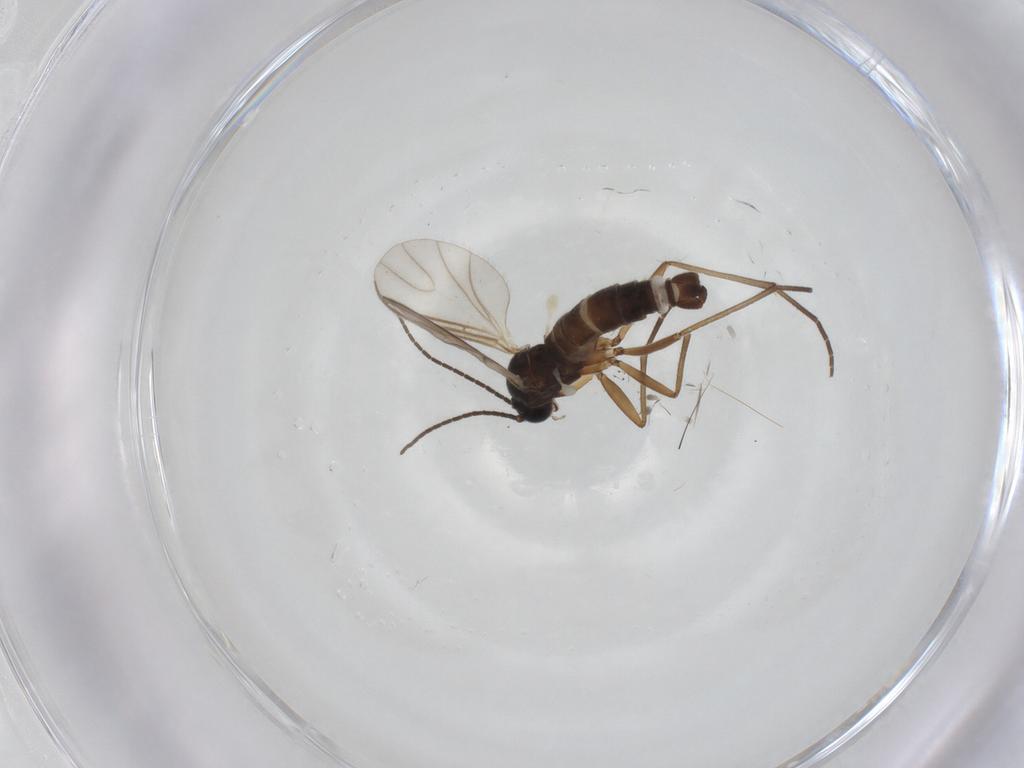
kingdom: Animalia
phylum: Arthropoda
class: Insecta
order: Diptera
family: Sciaridae
